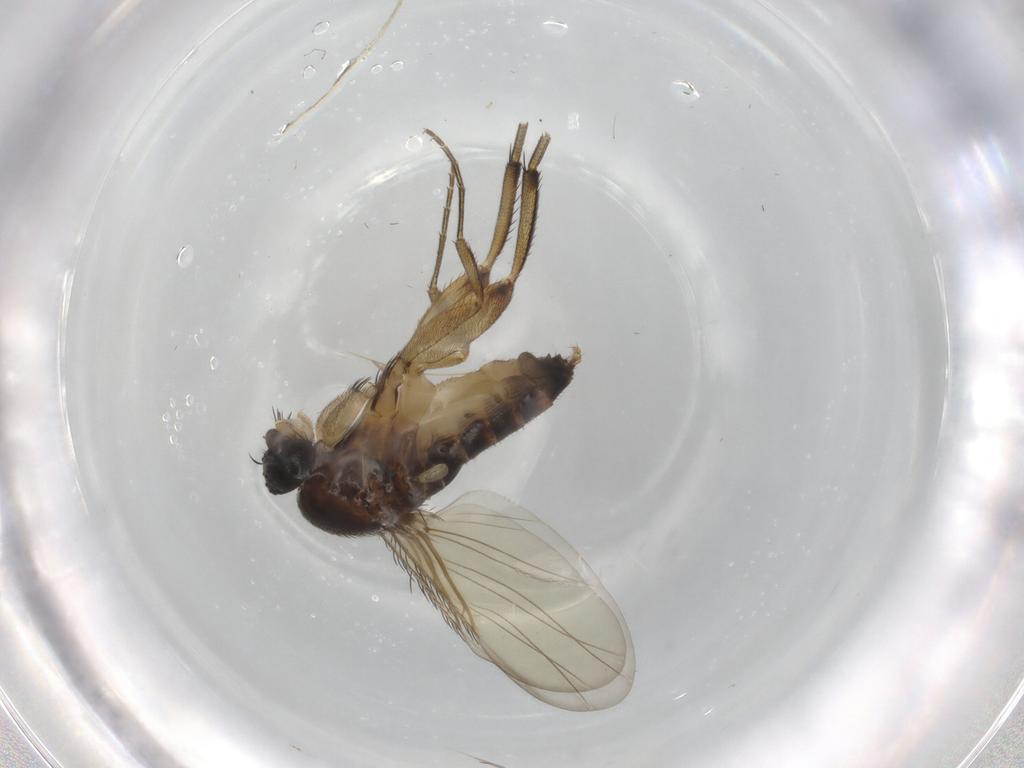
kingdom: Animalia
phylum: Arthropoda
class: Insecta
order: Diptera
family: Phoridae
